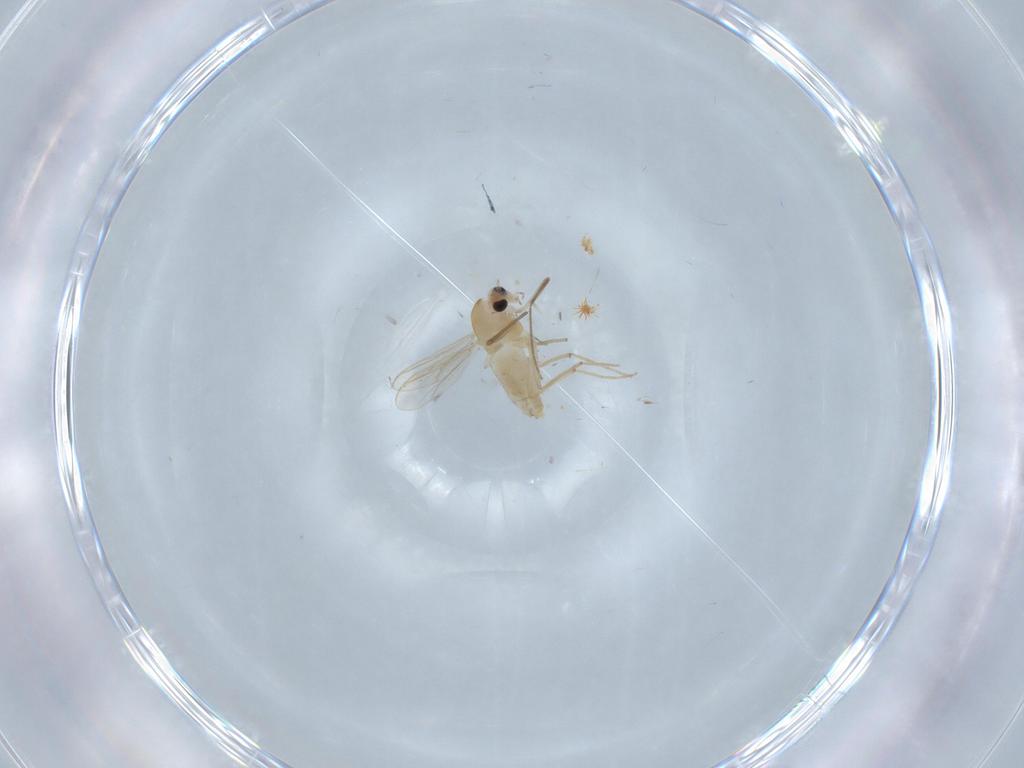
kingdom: Animalia
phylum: Arthropoda
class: Insecta
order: Diptera
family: Chironomidae
